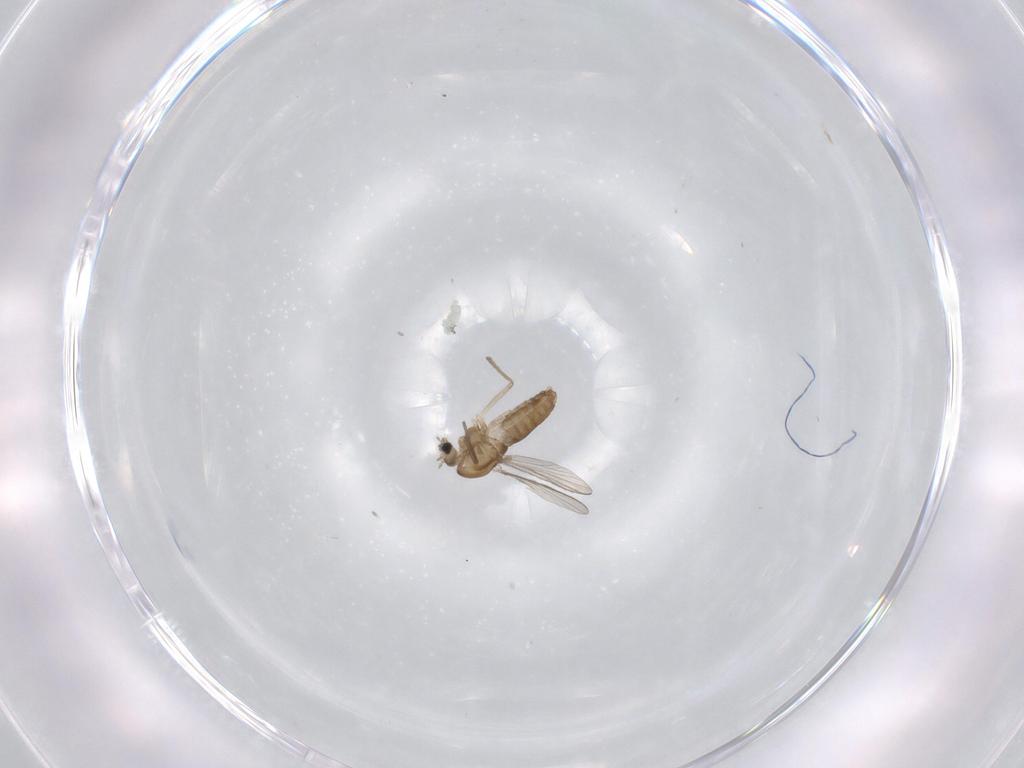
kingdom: Animalia
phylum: Arthropoda
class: Insecta
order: Diptera
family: Chironomidae
